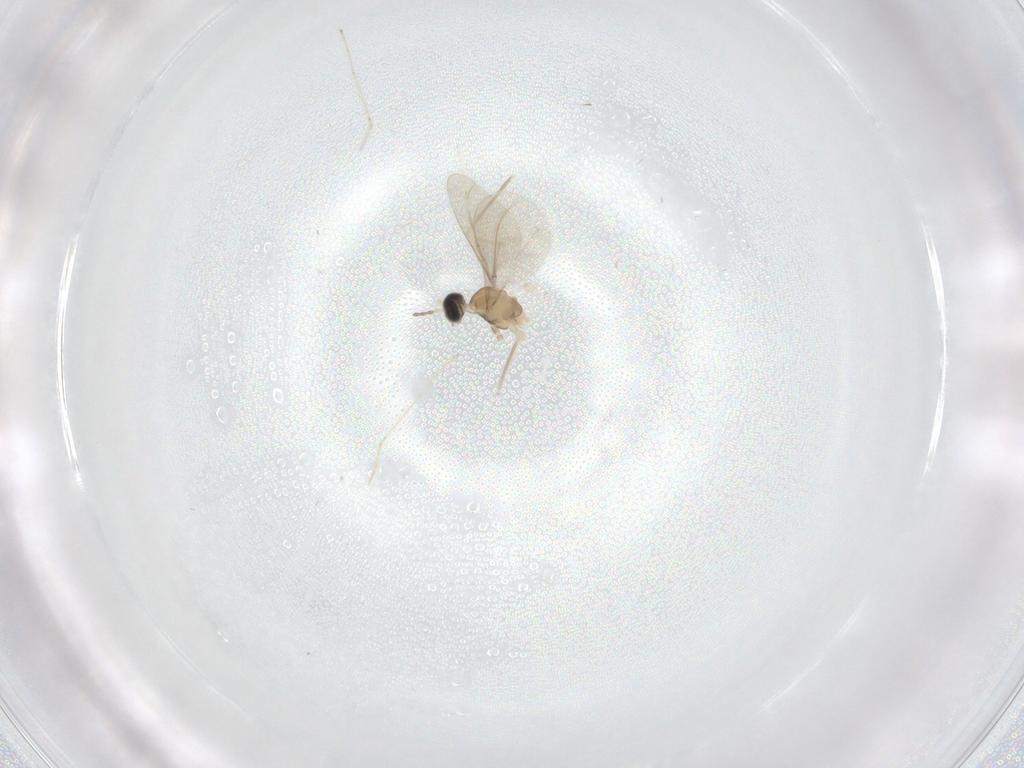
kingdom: Animalia
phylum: Arthropoda
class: Insecta
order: Diptera
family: Cecidomyiidae
